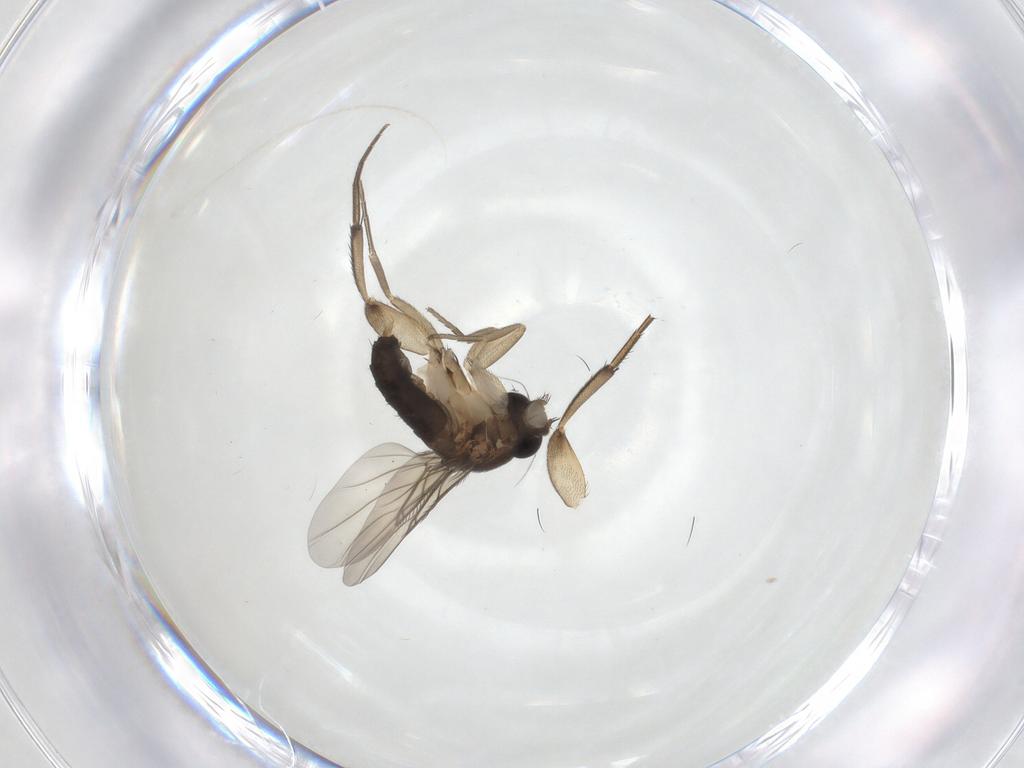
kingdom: Animalia
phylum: Arthropoda
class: Insecta
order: Diptera
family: Phoridae
